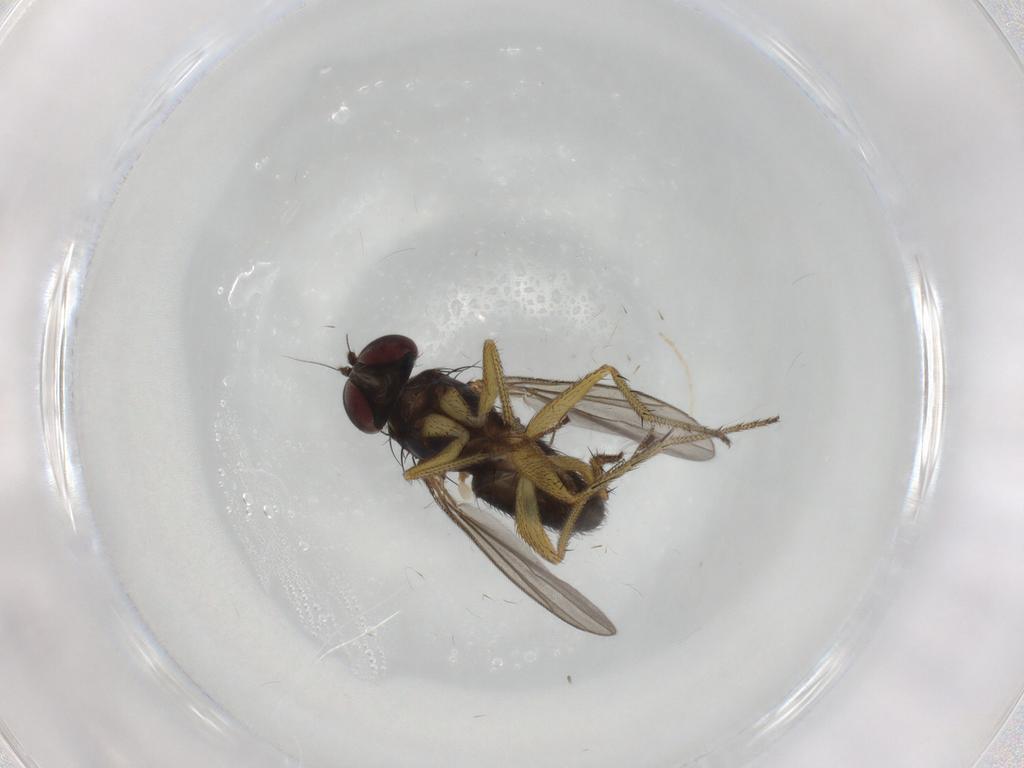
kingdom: Animalia
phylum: Arthropoda
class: Insecta
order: Diptera
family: Chironomidae
